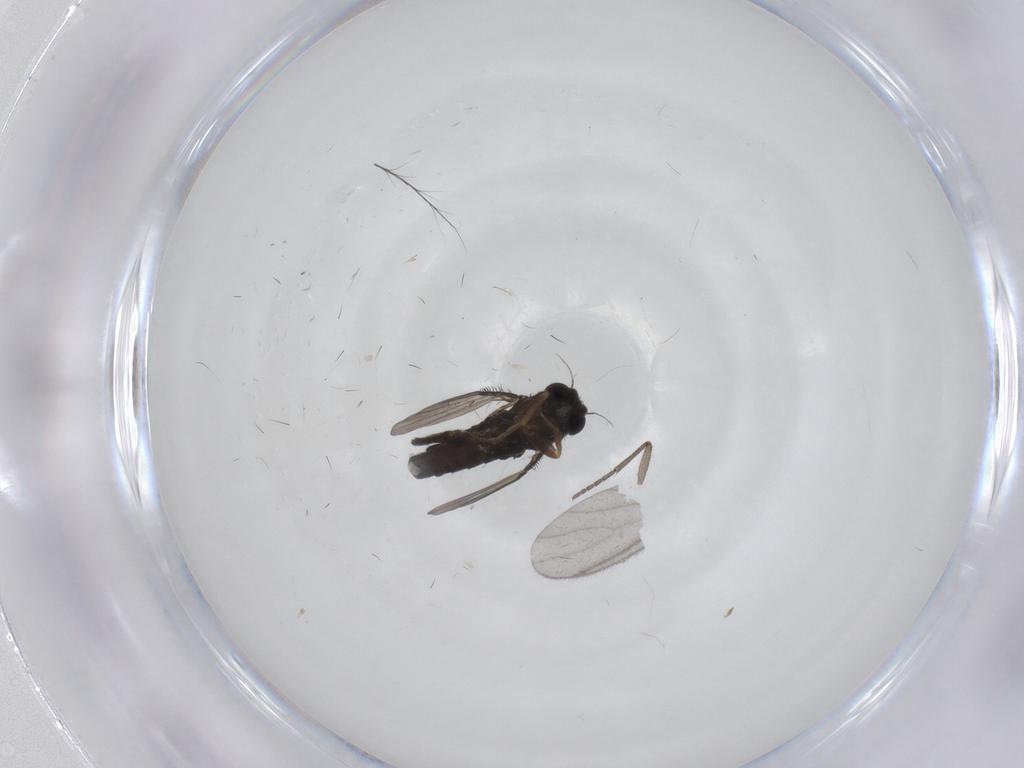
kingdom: Animalia
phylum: Arthropoda
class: Insecta
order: Diptera
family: Phoridae
